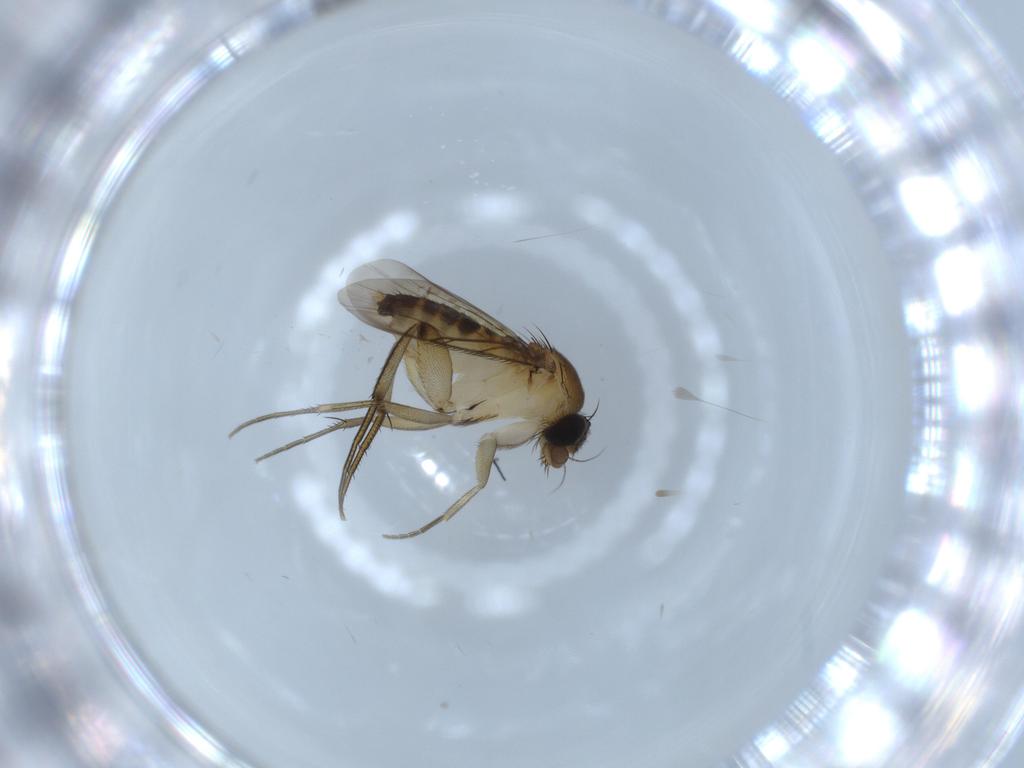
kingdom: Animalia
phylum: Arthropoda
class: Insecta
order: Diptera
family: Phoridae
